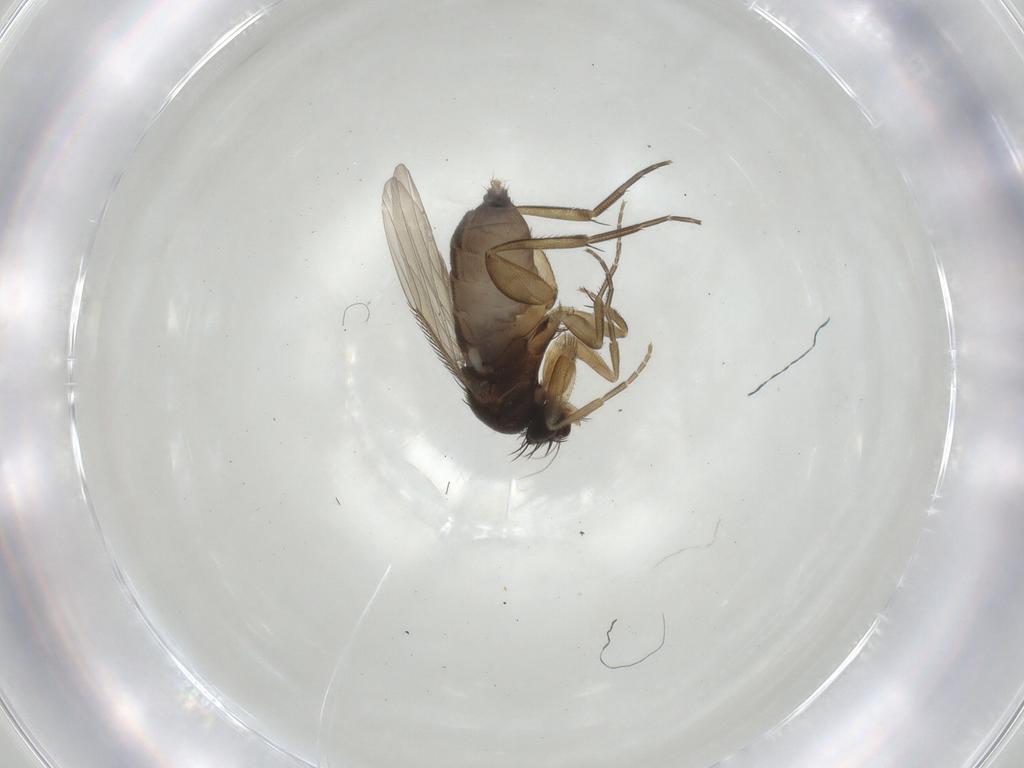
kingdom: Animalia
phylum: Arthropoda
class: Insecta
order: Diptera
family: Phoridae
